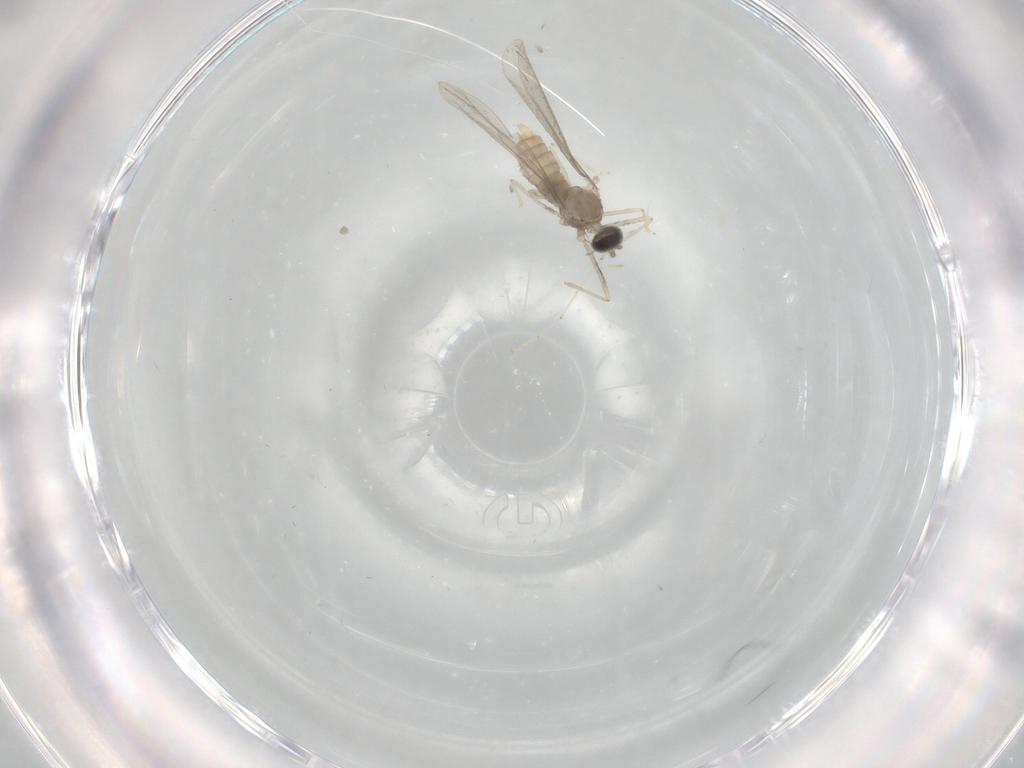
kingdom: Animalia
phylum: Arthropoda
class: Insecta
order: Diptera
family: Cecidomyiidae
